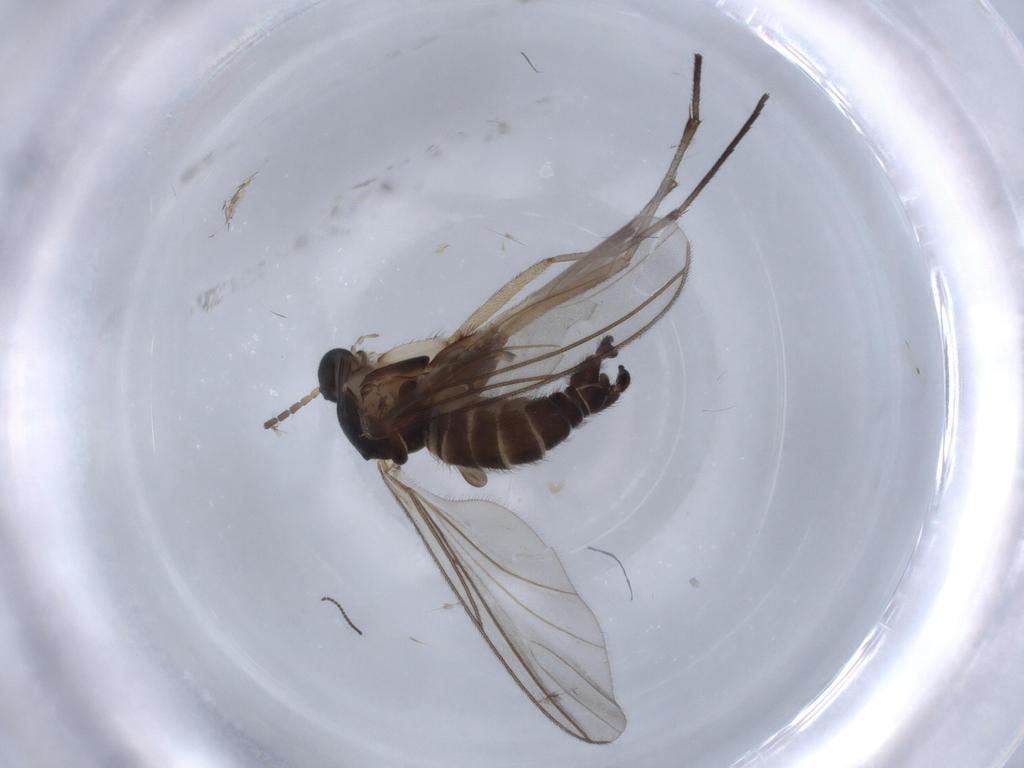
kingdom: Animalia
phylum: Arthropoda
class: Insecta
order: Diptera
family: Sciaridae
